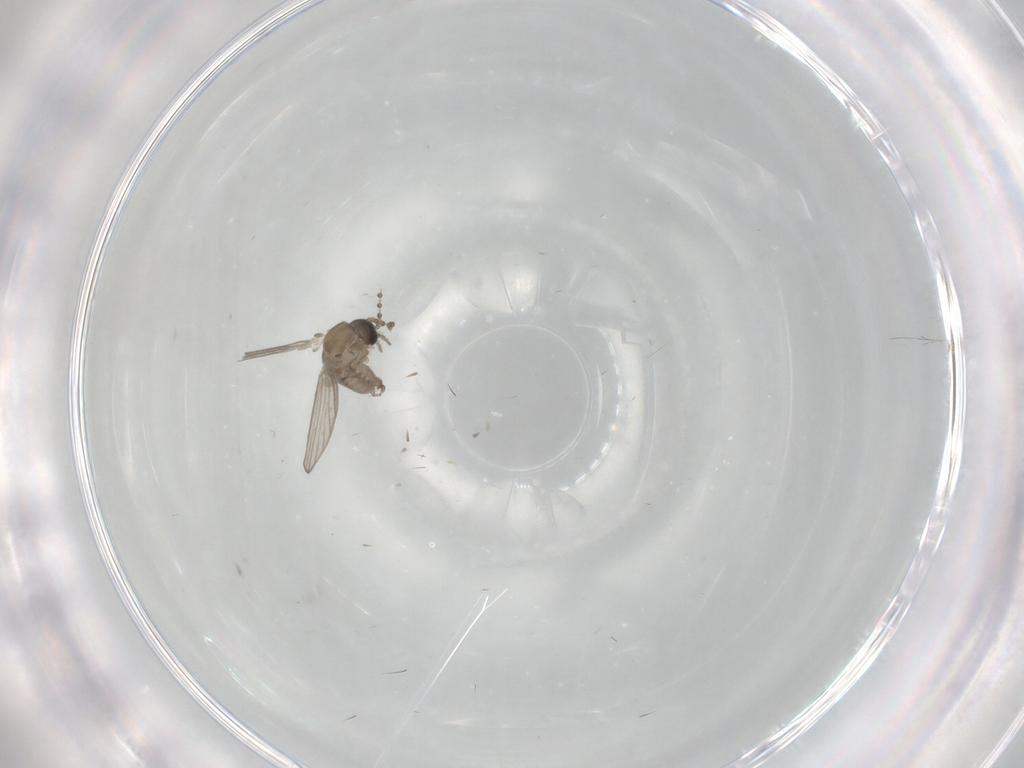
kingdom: Animalia
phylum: Arthropoda
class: Insecta
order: Diptera
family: Psychodidae
